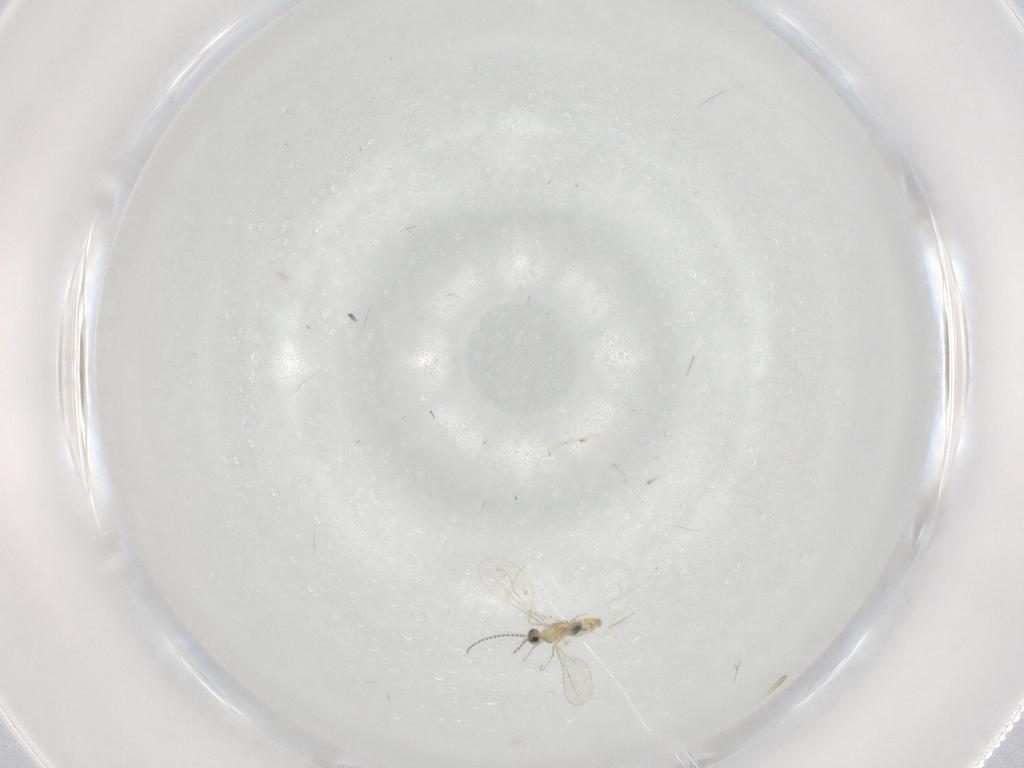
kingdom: Animalia
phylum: Arthropoda
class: Insecta
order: Diptera
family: Cecidomyiidae
